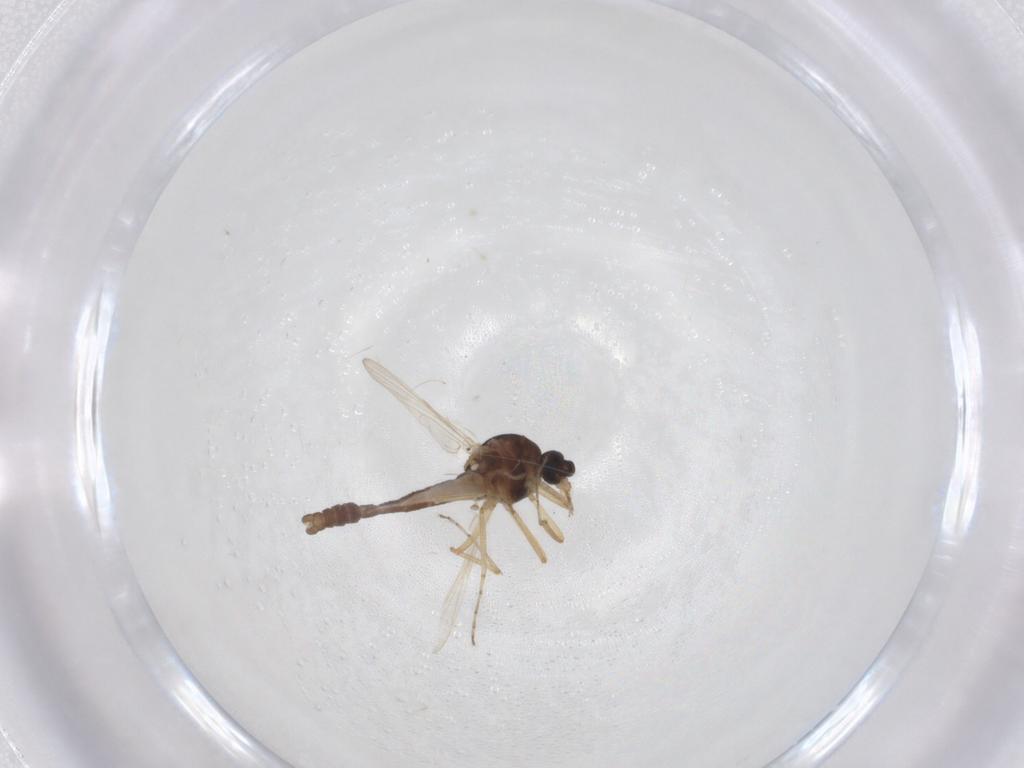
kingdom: Animalia
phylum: Arthropoda
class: Insecta
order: Diptera
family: Ceratopogonidae
